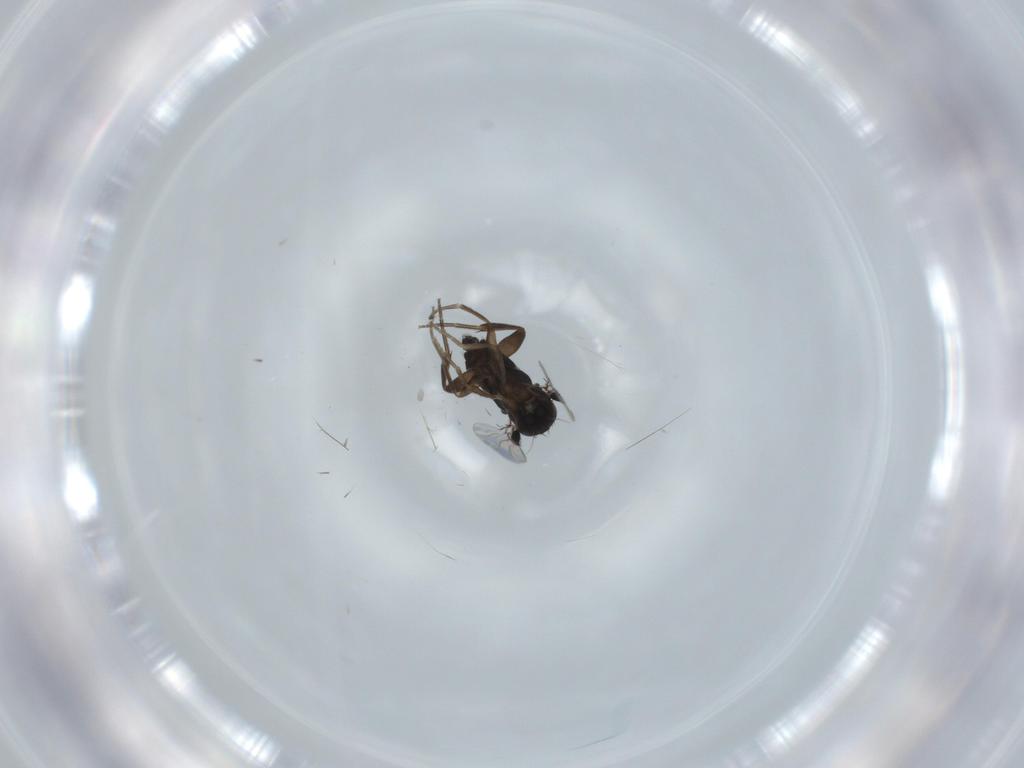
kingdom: Animalia
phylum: Arthropoda
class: Insecta
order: Diptera
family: Phoridae
